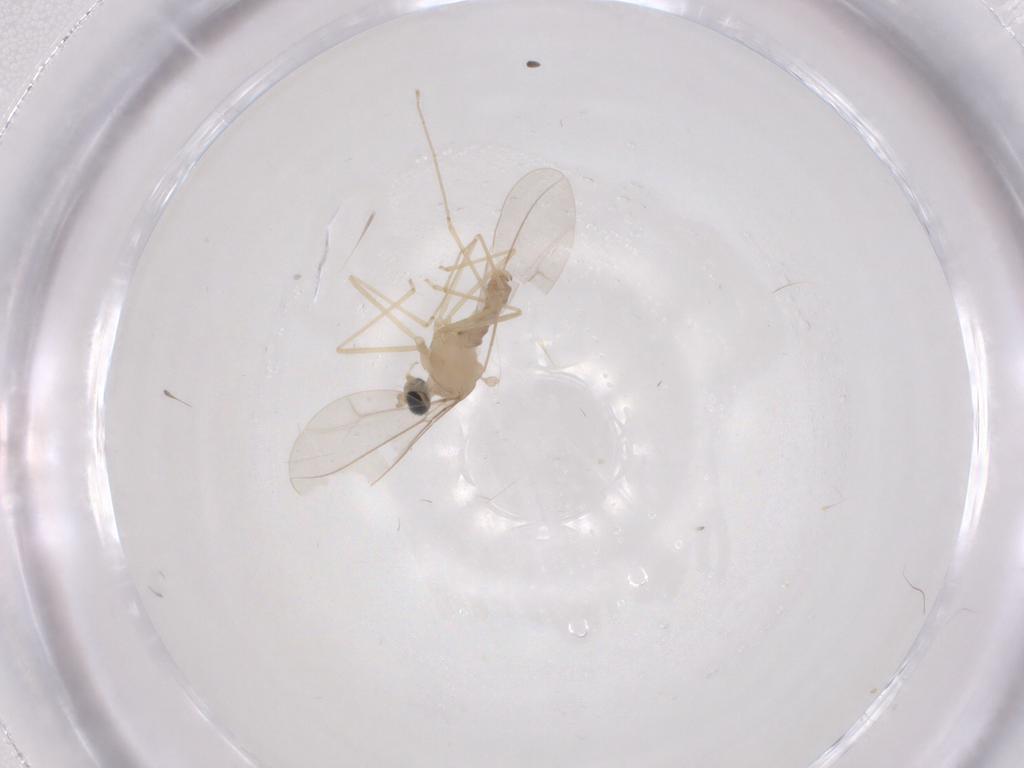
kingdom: Animalia
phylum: Arthropoda
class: Insecta
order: Diptera
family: Cecidomyiidae
